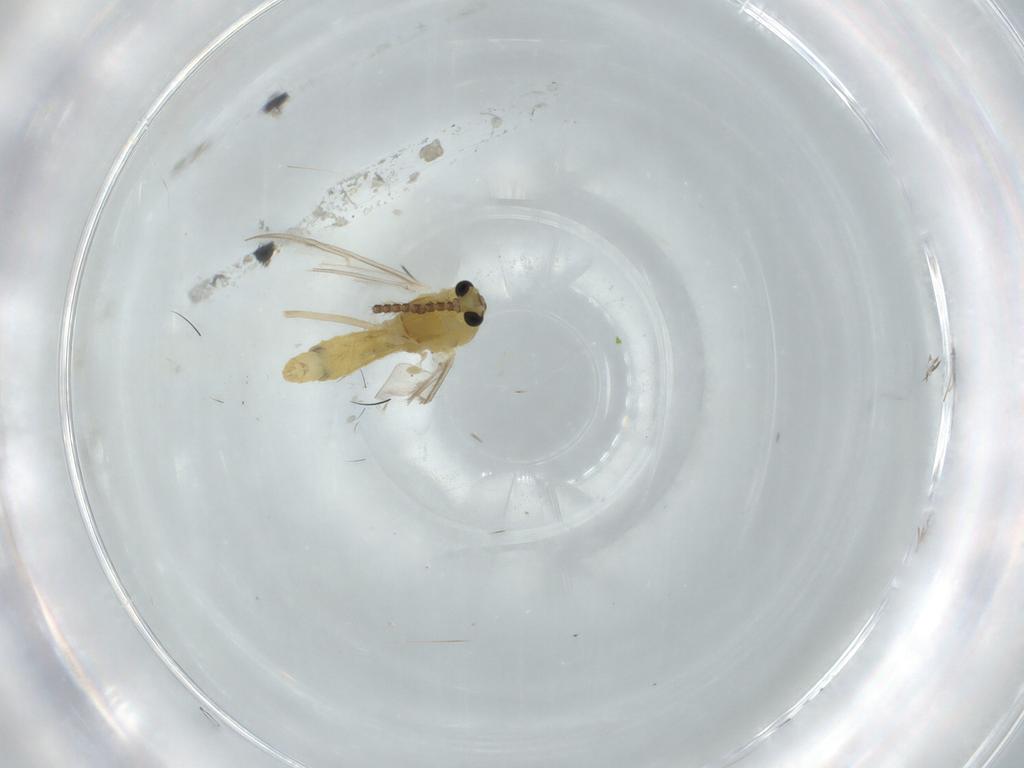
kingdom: Animalia
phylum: Arthropoda
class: Insecta
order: Diptera
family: Chironomidae
